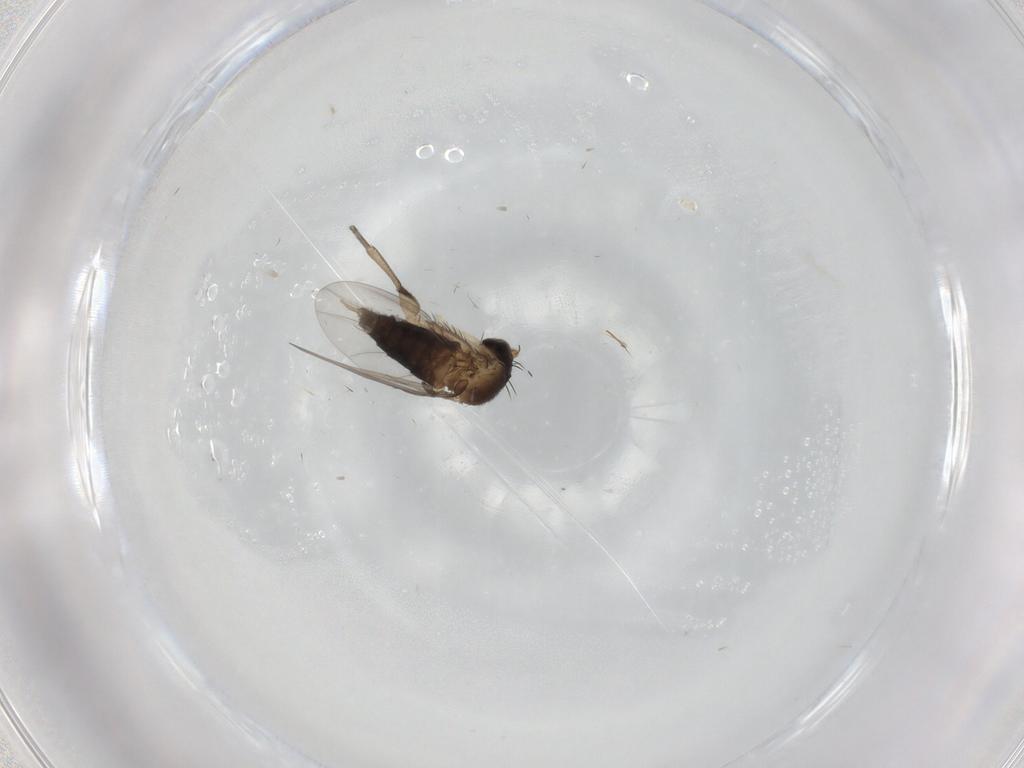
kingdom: Animalia
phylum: Arthropoda
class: Insecta
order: Diptera
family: Phoridae
